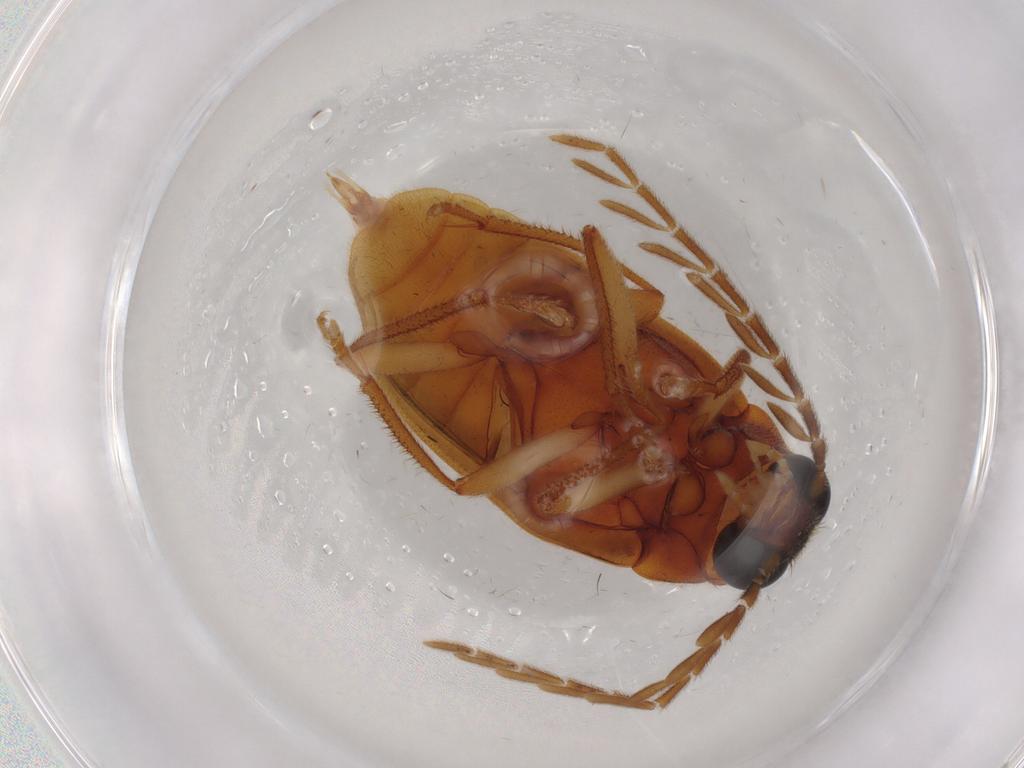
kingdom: Animalia
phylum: Arthropoda
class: Insecta
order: Coleoptera
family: Ptilodactylidae
